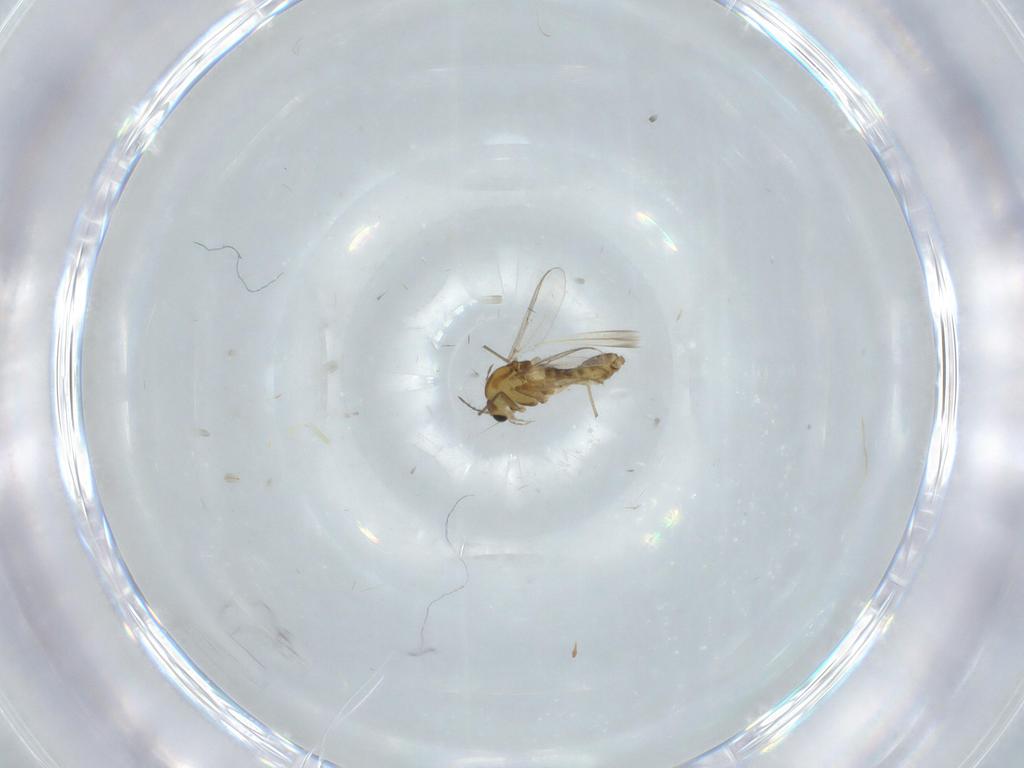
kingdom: Animalia
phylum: Arthropoda
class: Insecta
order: Diptera
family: Chironomidae
